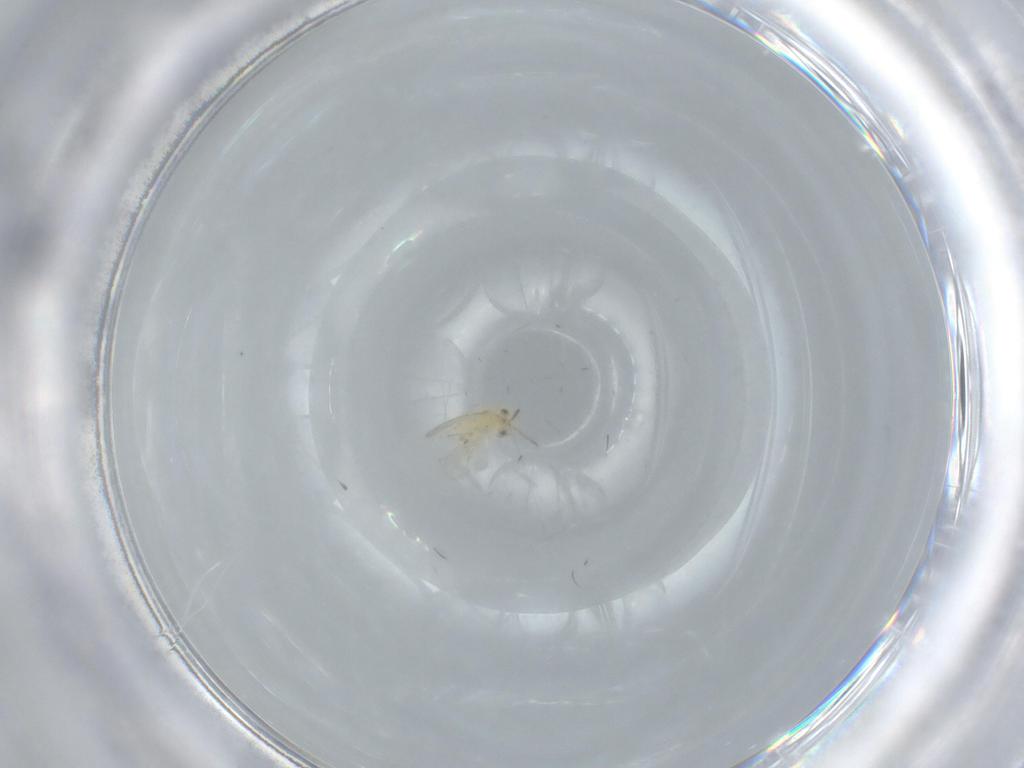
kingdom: Animalia
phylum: Arthropoda
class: Insecta
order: Hymenoptera
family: Aphelinidae
